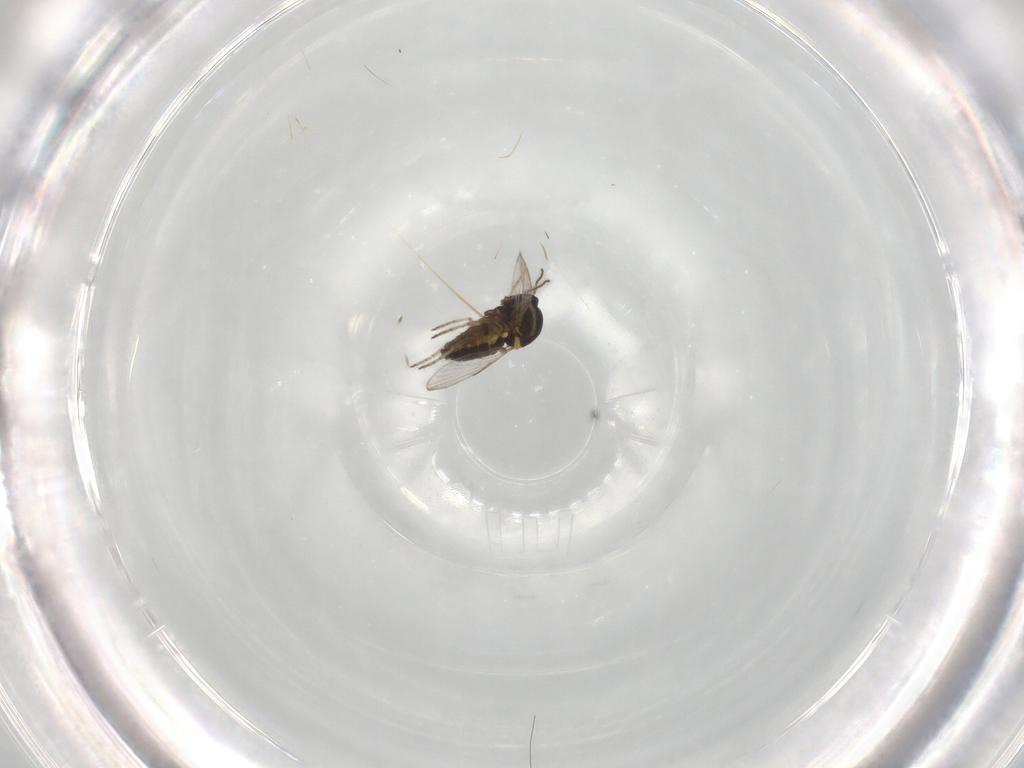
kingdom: Animalia
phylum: Arthropoda
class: Insecta
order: Diptera
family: Ceratopogonidae
